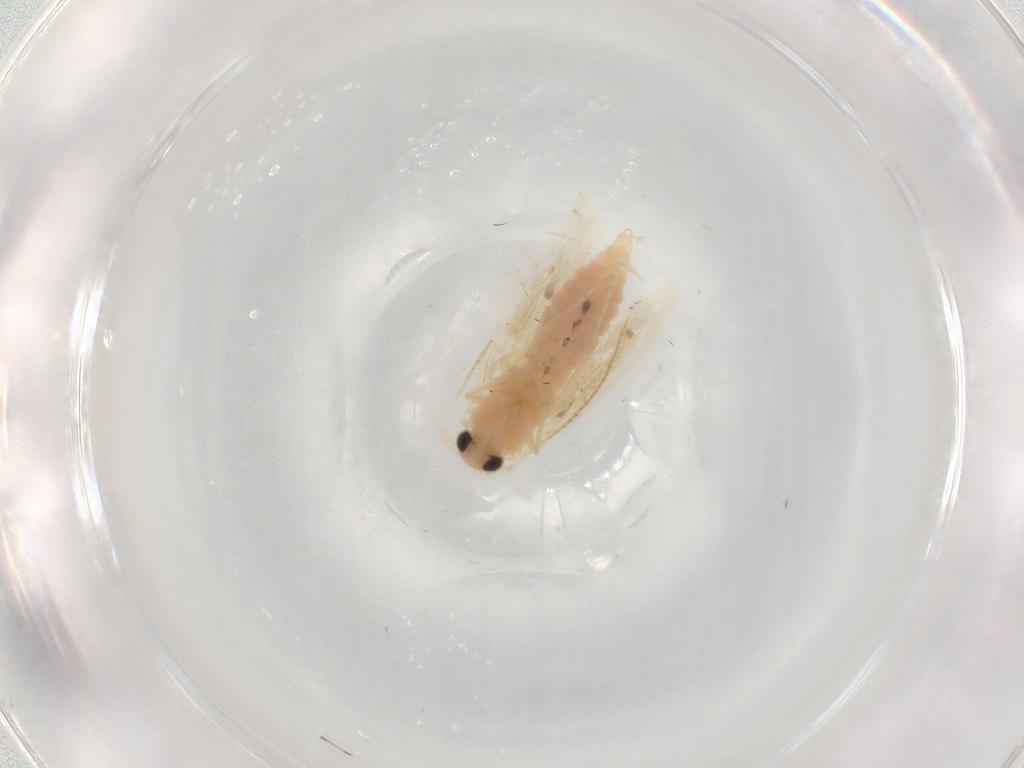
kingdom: Animalia
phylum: Arthropoda
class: Insecta
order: Lepidoptera
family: Bucculatricidae
